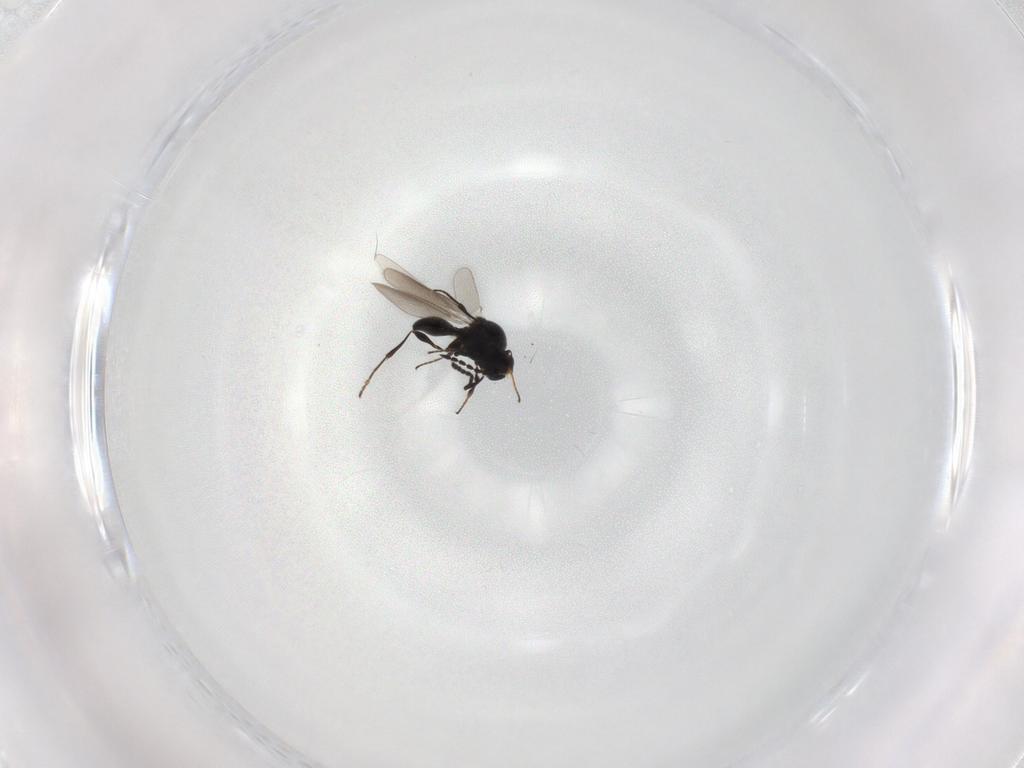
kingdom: Animalia
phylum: Arthropoda
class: Insecta
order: Hymenoptera
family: Platygastridae
